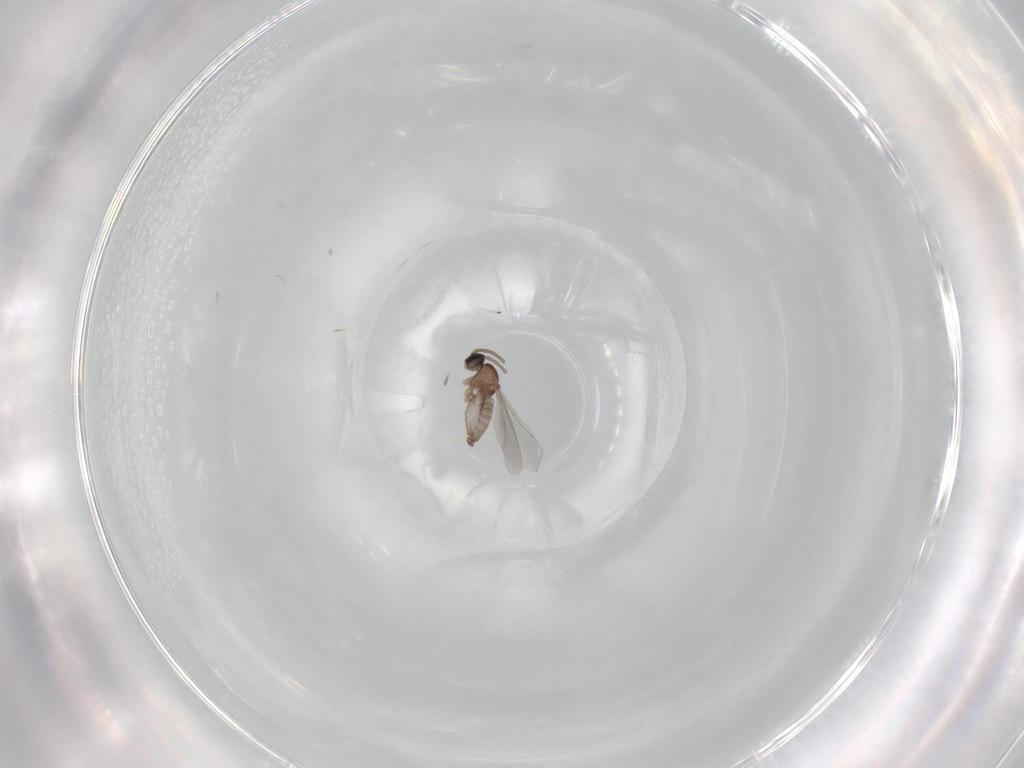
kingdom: Animalia
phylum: Arthropoda
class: Insecta
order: Diptera
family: Cecidomyiidae
